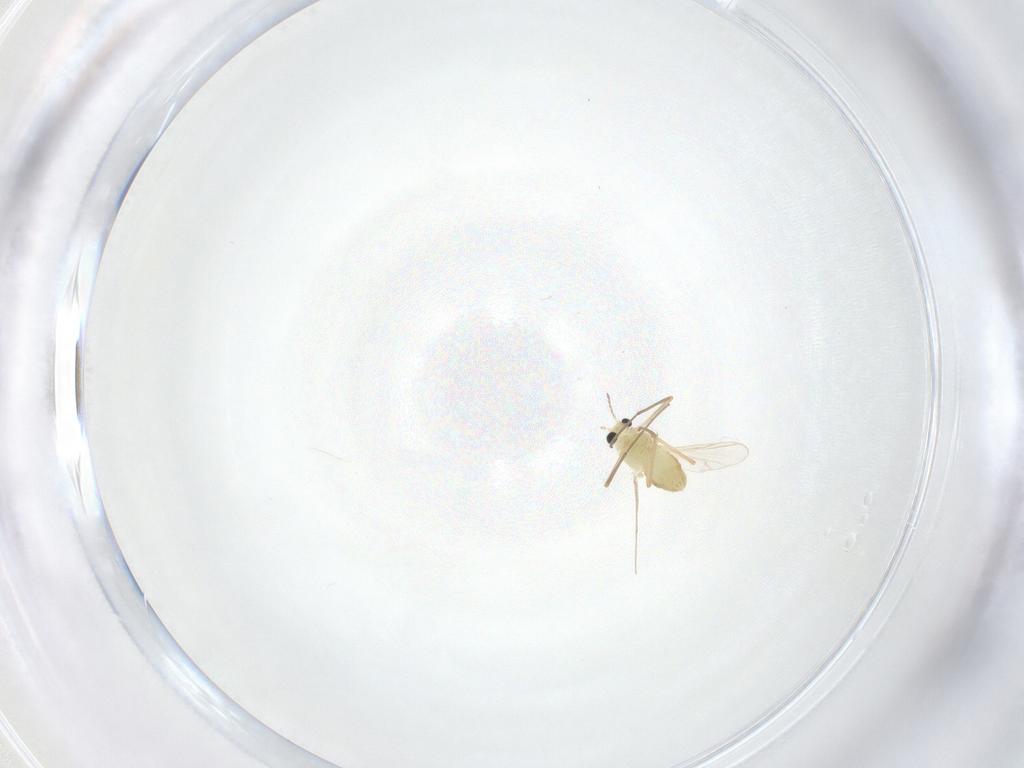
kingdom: Animalia
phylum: Arthropoda
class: Insecta
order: Diptera
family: Chironomidae
